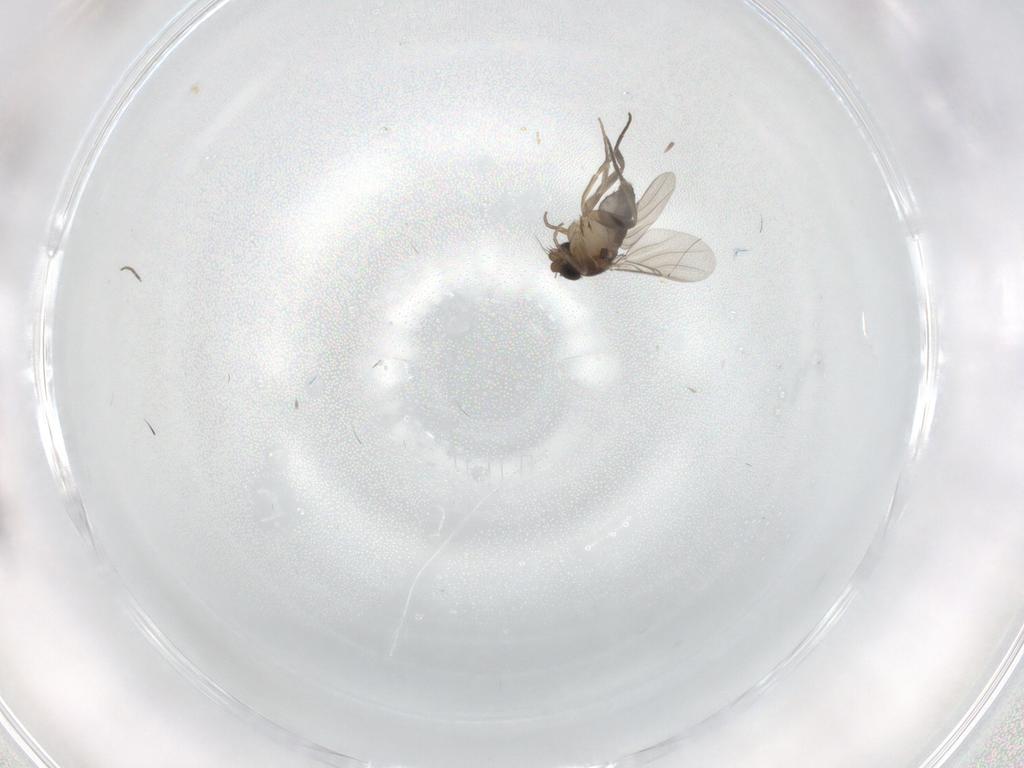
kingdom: Animalia
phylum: Arthropoda
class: Insecta
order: Diptera
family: Phoridae
